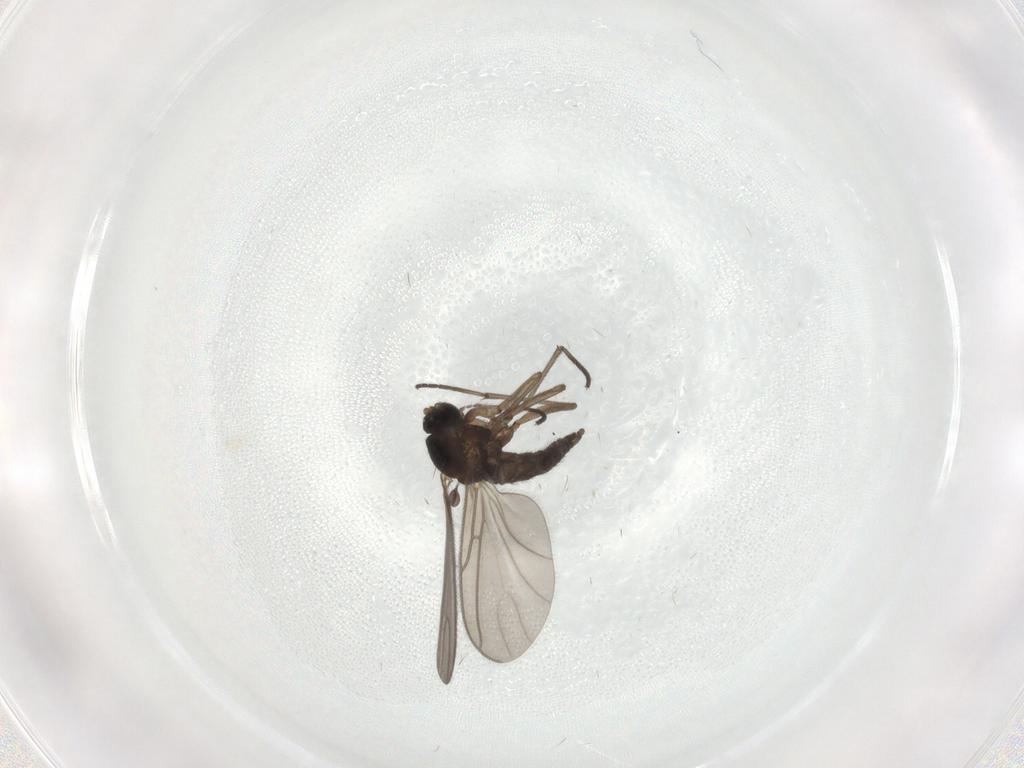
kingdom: Animalia
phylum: Arthropoda
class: Insecta
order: Diptera
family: Sciaridae
